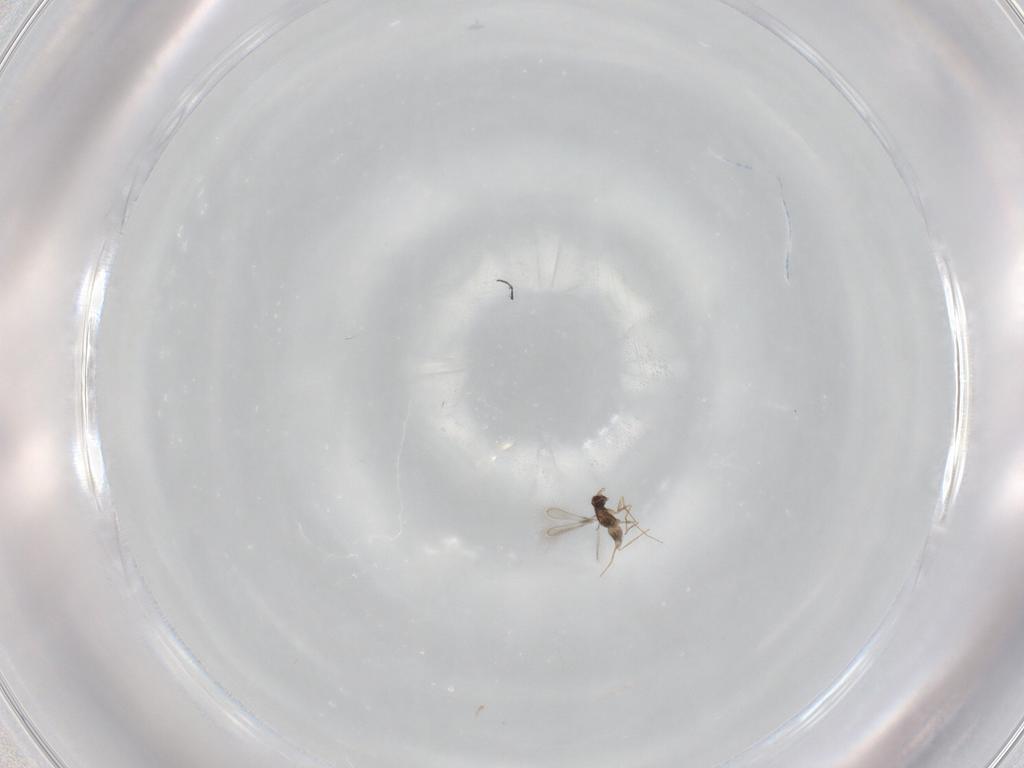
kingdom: Animalia
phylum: Arthropoda
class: Insecta
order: Hymenoptera
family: Mymaridae
